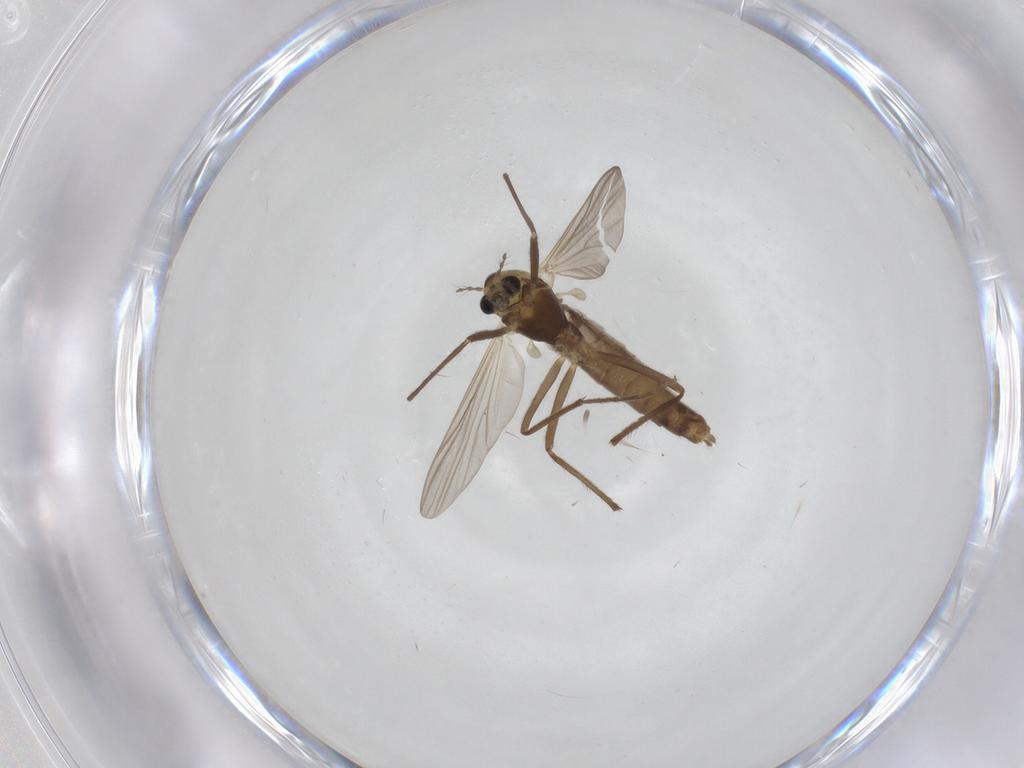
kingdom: Animalia
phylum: Arthropoda
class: Insecta
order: Diptera
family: Chironomidae
